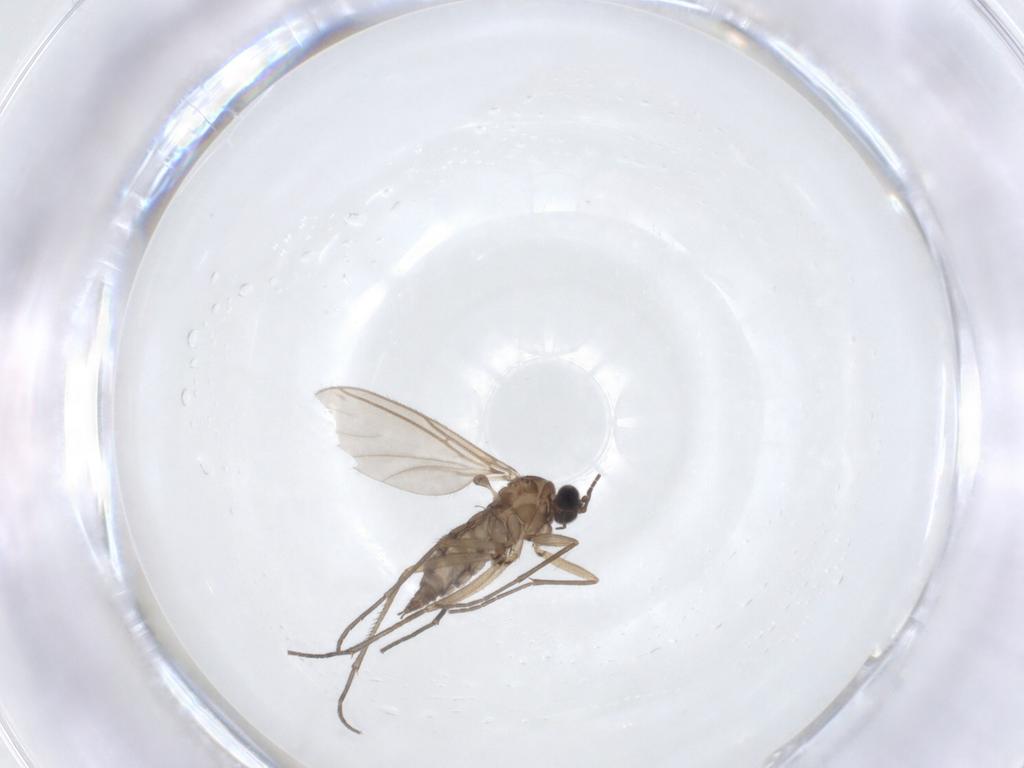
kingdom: Animalia
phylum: Arthropoda
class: Insecta
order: Diptera
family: Sciaridae
